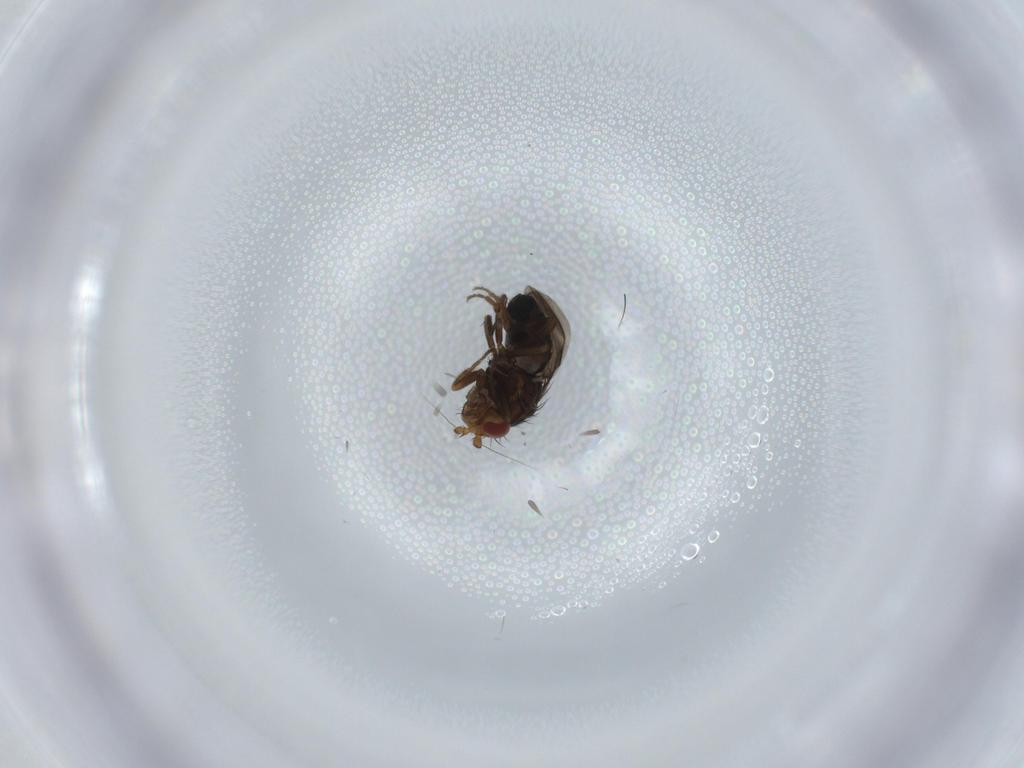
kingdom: Animalia
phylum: Arthropoda
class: Insecta
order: Diptera
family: Sphaeroceridae
